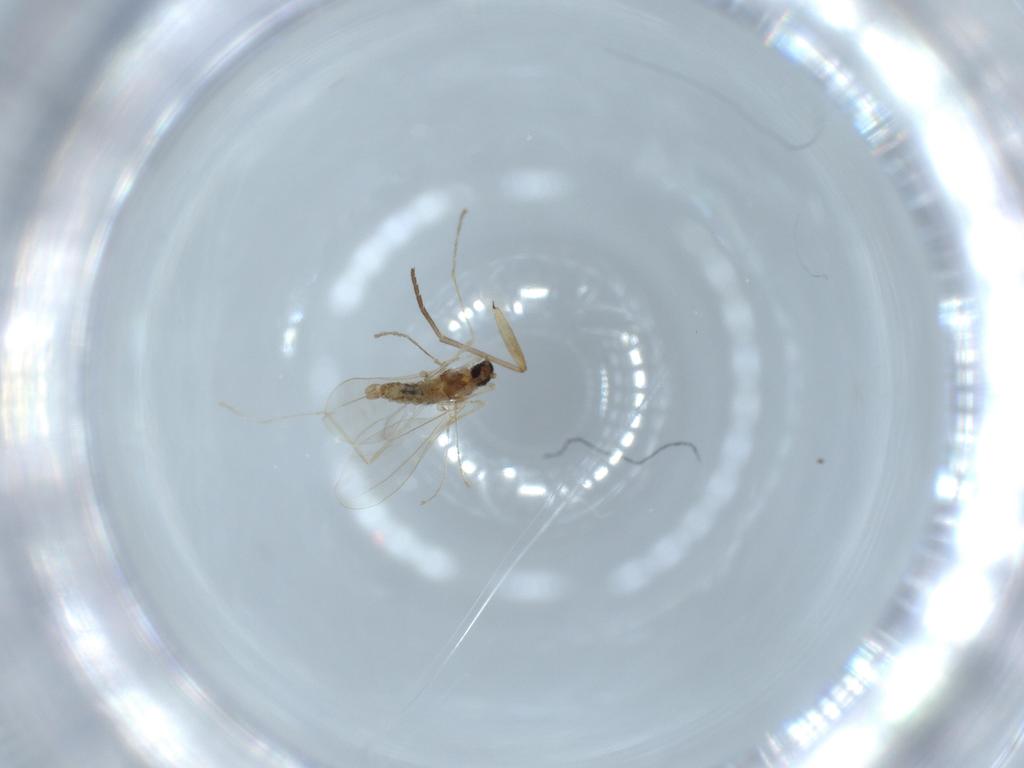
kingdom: Animalia
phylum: Arthropoda
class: Insecta
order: Diptera
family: Cecidomyiidae
